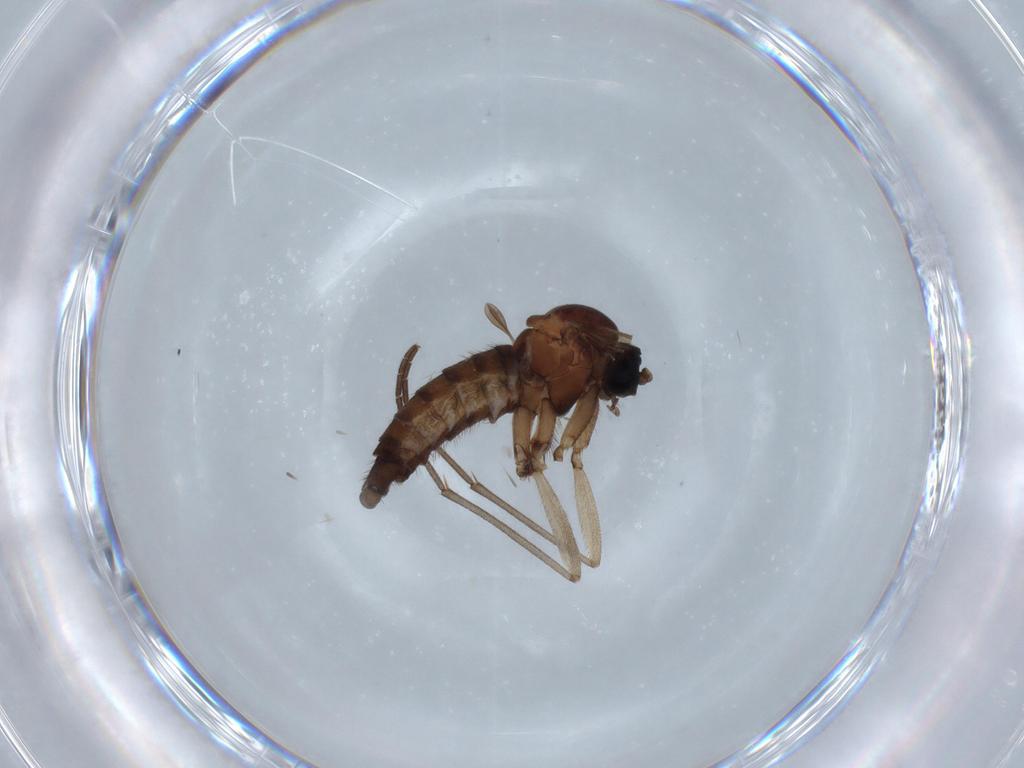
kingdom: Animalia
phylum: Arthropoda
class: Insecta
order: Diptera
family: Sciaridae
